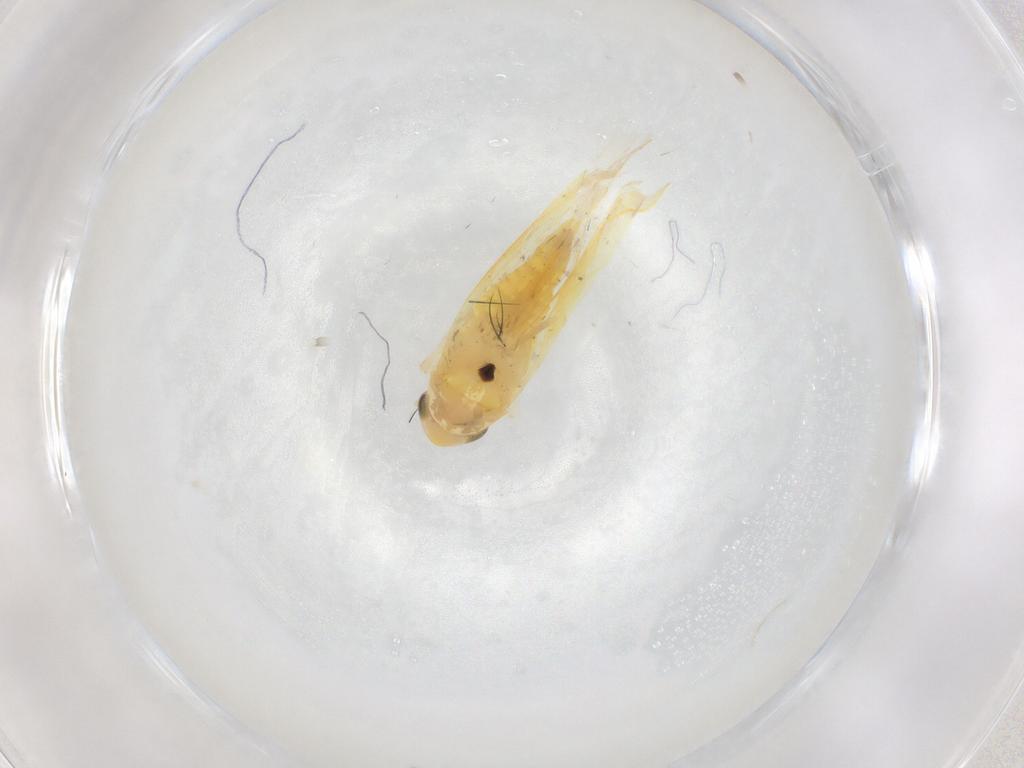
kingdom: Animalia
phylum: Arthropoda
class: Insecta
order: Hemiptera
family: Cicadellidae
